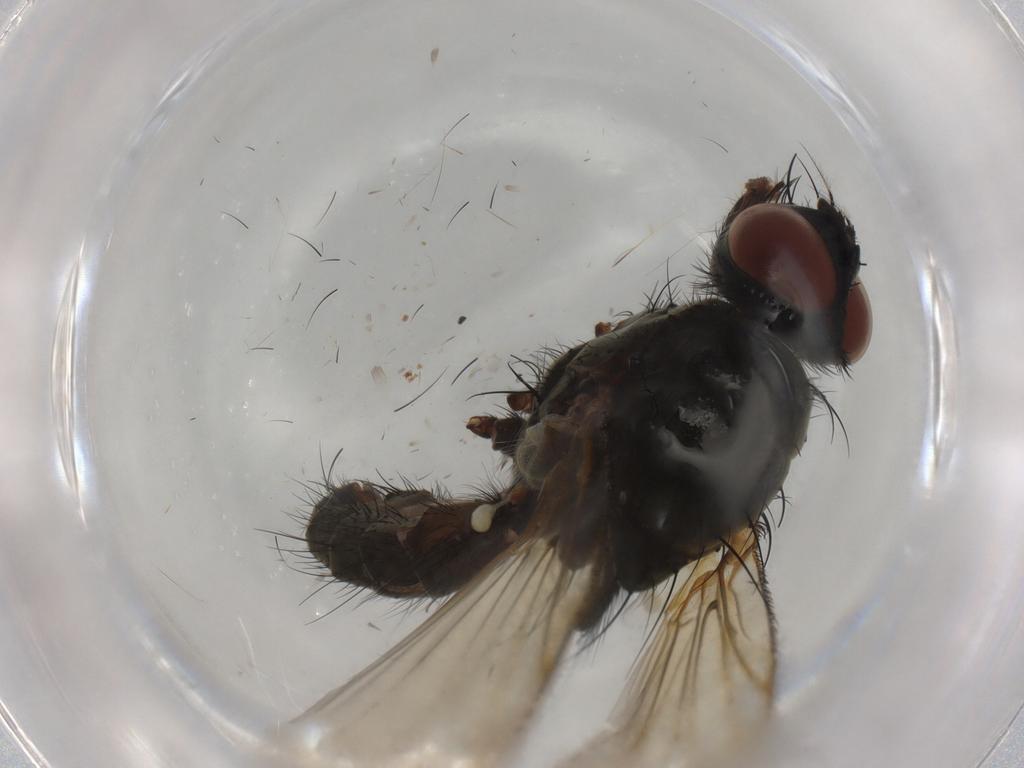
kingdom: Animalia
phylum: Arthropoda
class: Insecta
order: Diptera
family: Anthomyiidae
